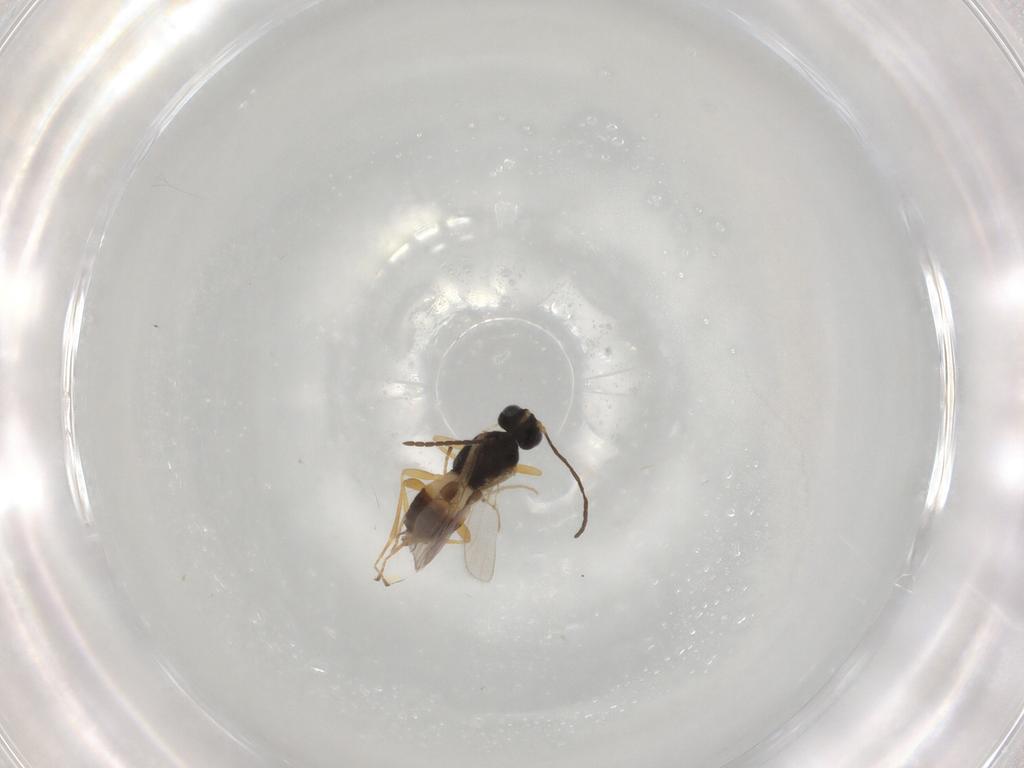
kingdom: Animalia
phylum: Arthropoda
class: Insecta
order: Hymenoptera
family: Braconidae
